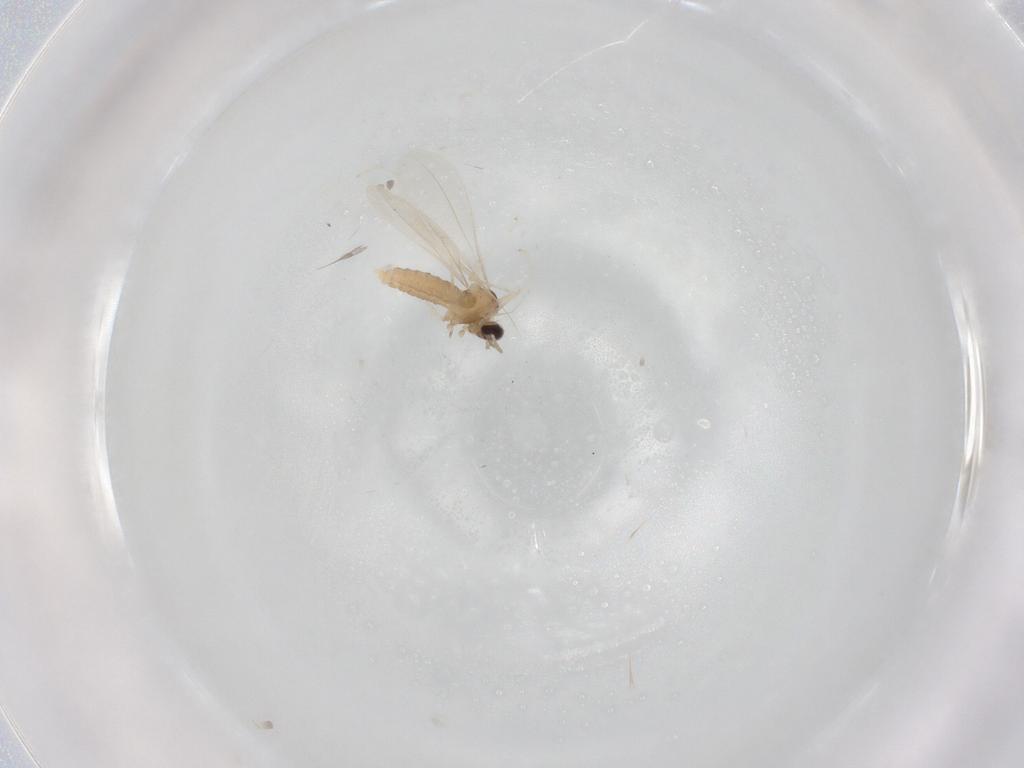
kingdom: Animalia
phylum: Arthropoda
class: Insecta
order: Diptera
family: Cecidomyiidae
